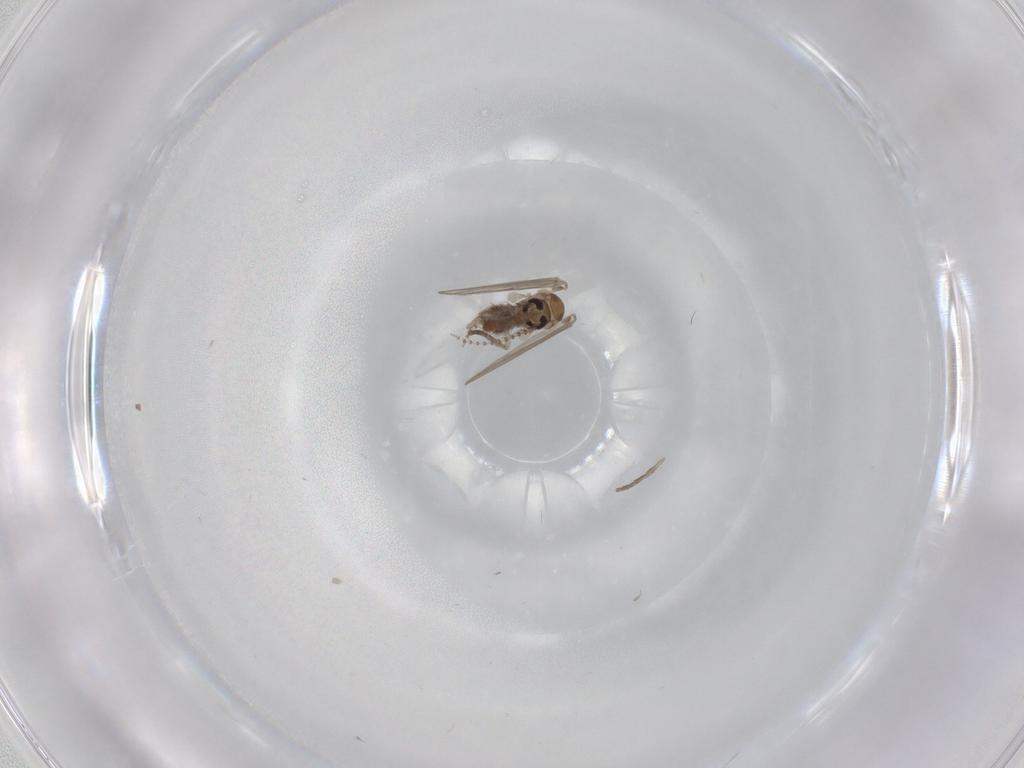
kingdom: Animalia
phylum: Arthropoda
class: Insecta
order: Diptera
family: Psychodidae
